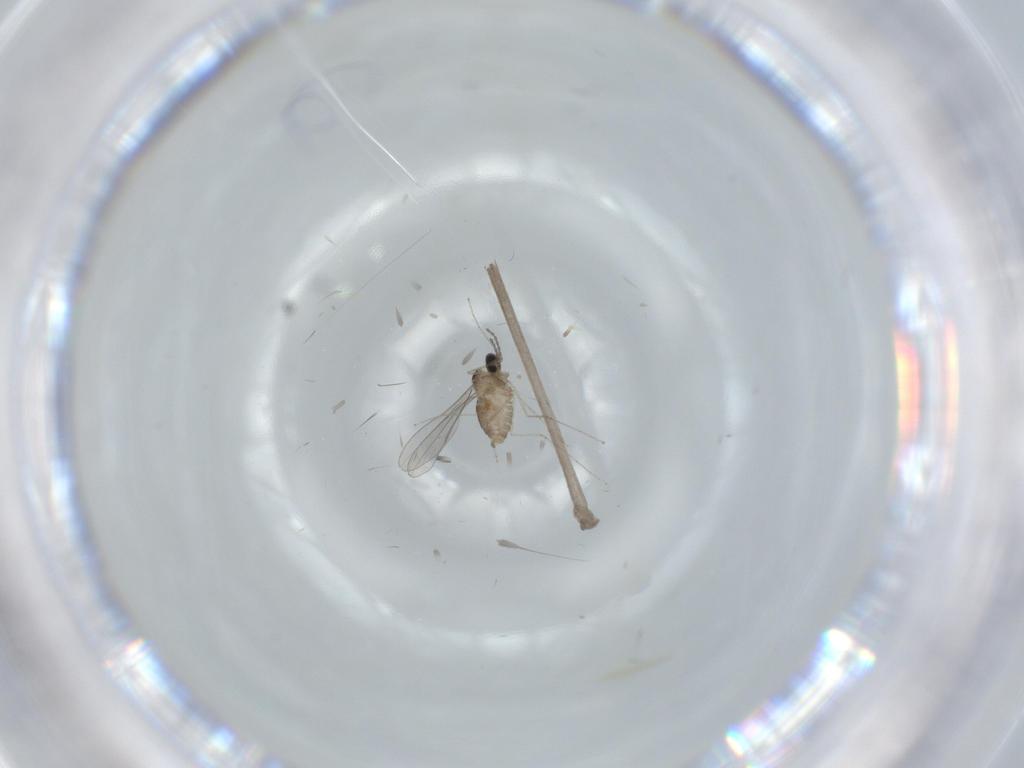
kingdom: Animalia
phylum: Arthropoda
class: Insecta
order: Diptera
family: Cecidomyiidae
